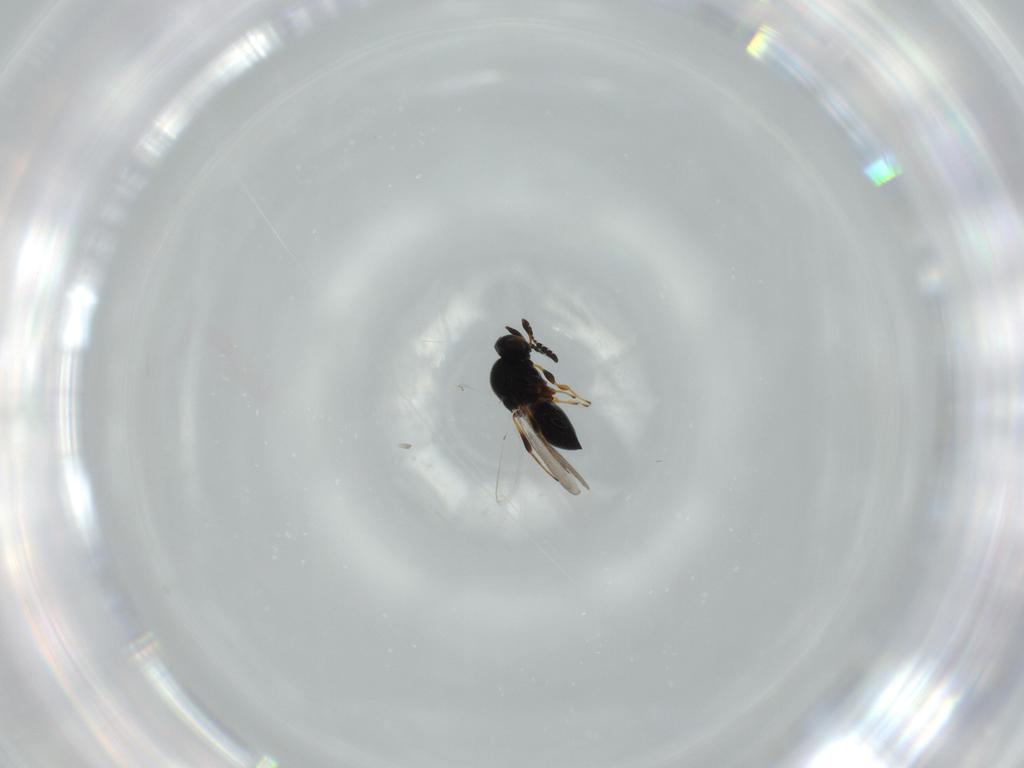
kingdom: Animalia
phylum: Arthropoda
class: Insecta
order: Hymenoptera
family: Platygastridae
